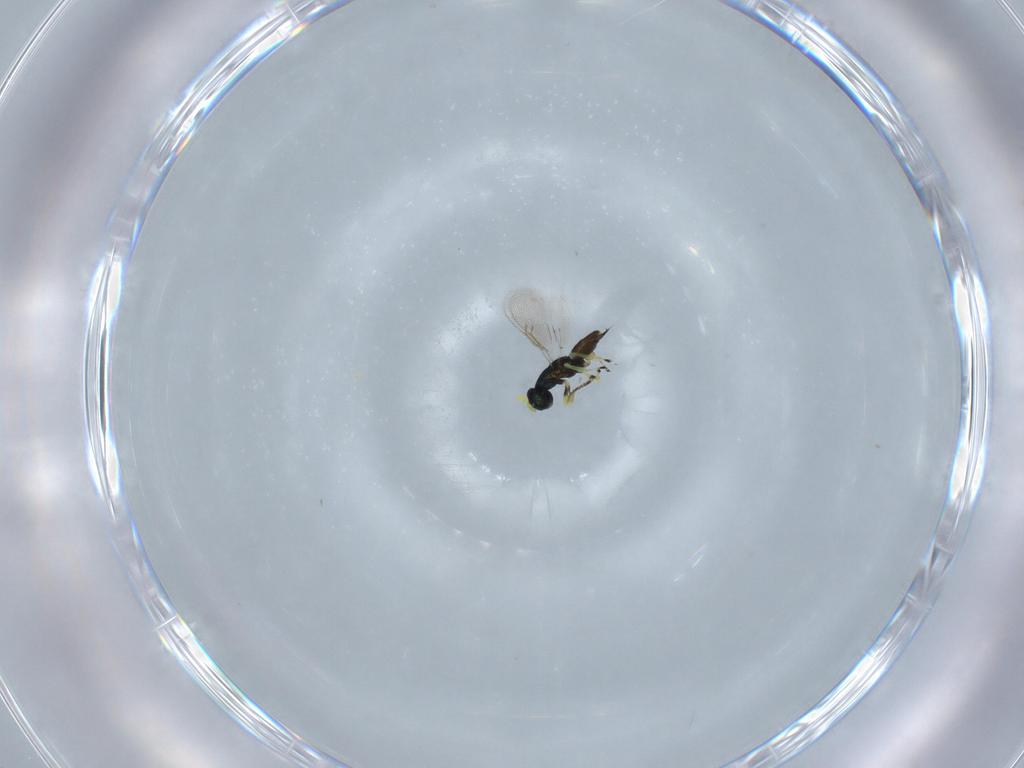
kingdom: Animalia
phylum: Arthropoda
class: Insecta
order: Hymenoptera
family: Eulophidae
